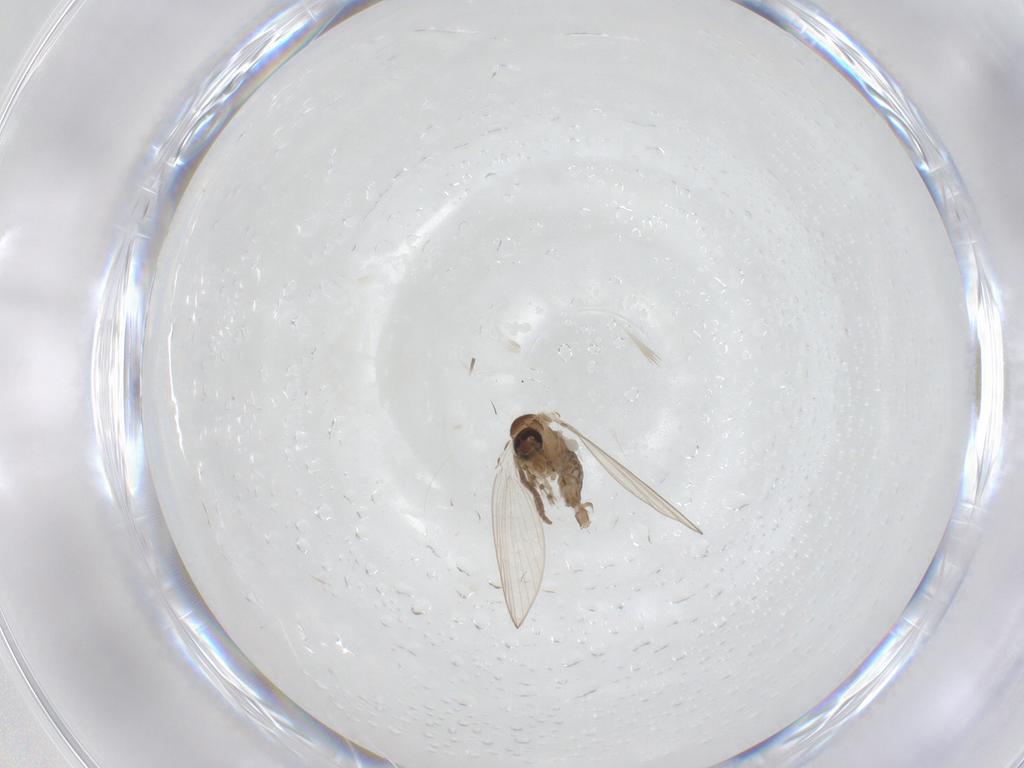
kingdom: Animalia
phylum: Arthropoda
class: Insecta
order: Diptera
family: Psychodidae
